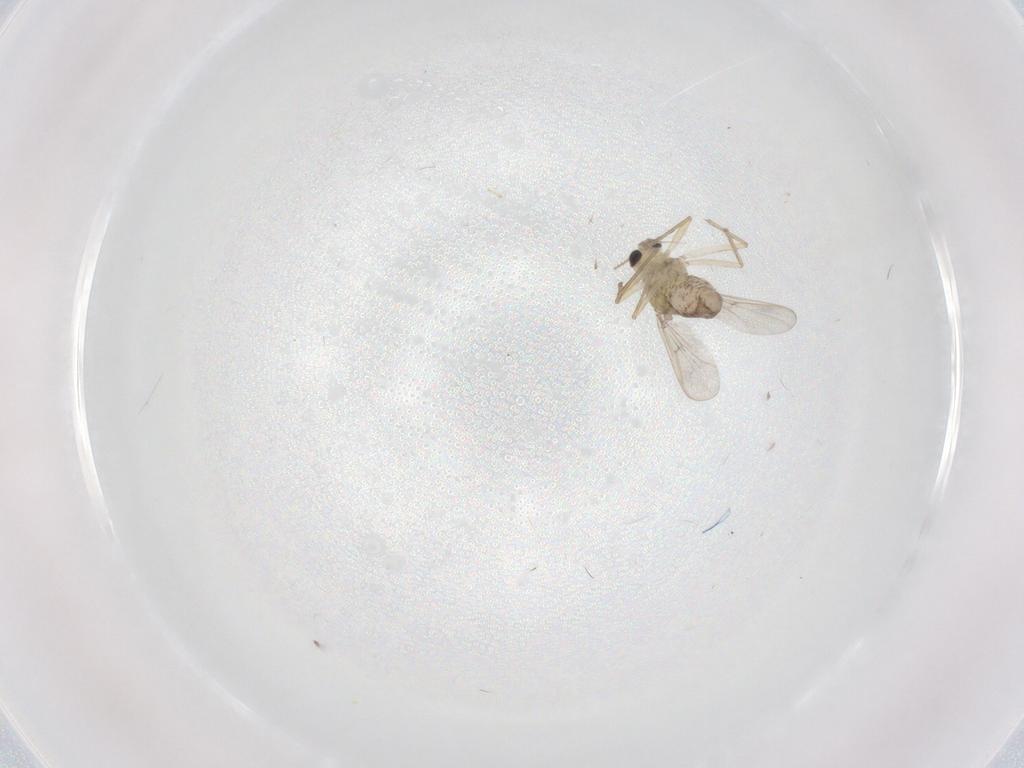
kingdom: Animalia
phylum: Arthropoda
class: Insecta
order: Diptera
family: Chironomidae
